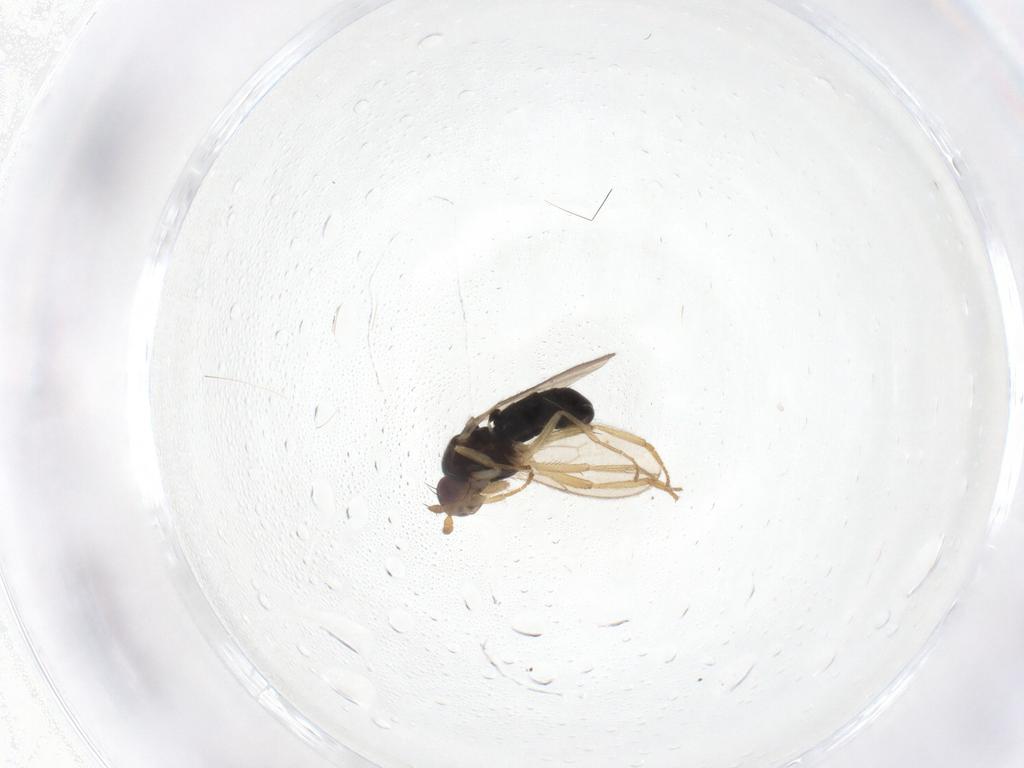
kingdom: Animalia
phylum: Arthropoda
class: Insecta
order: Diptera
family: Sphaeroceridae
